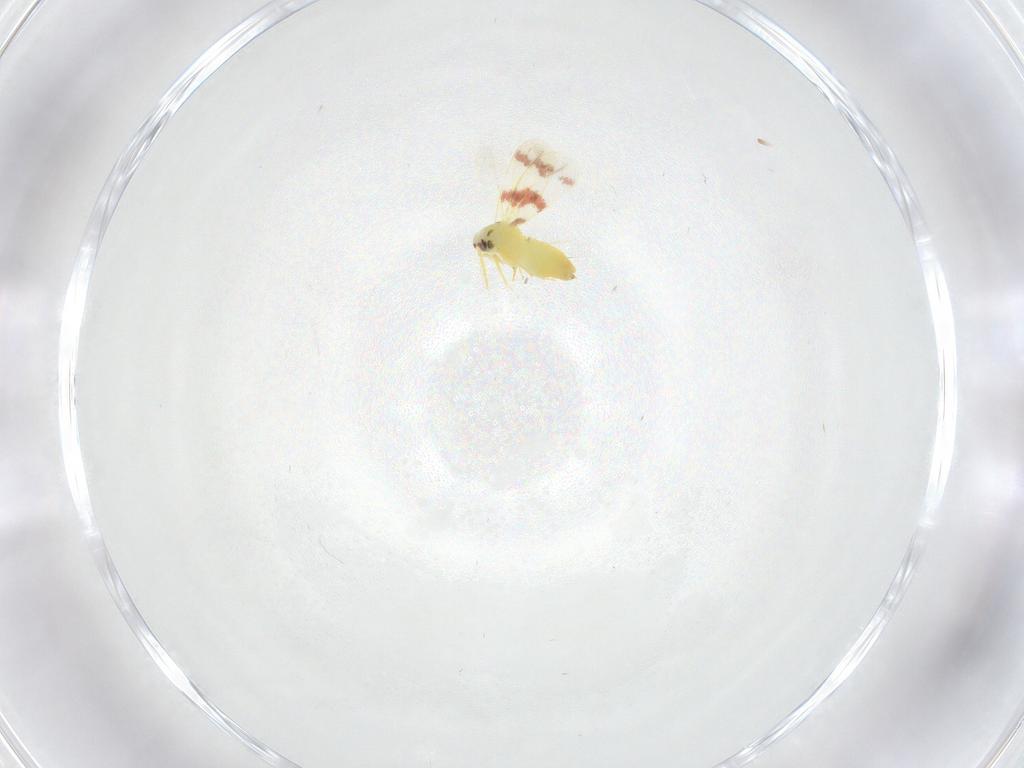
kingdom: Animalia
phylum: Arthropoda
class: Insecta
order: Hemiptera
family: Aleyrodidae
